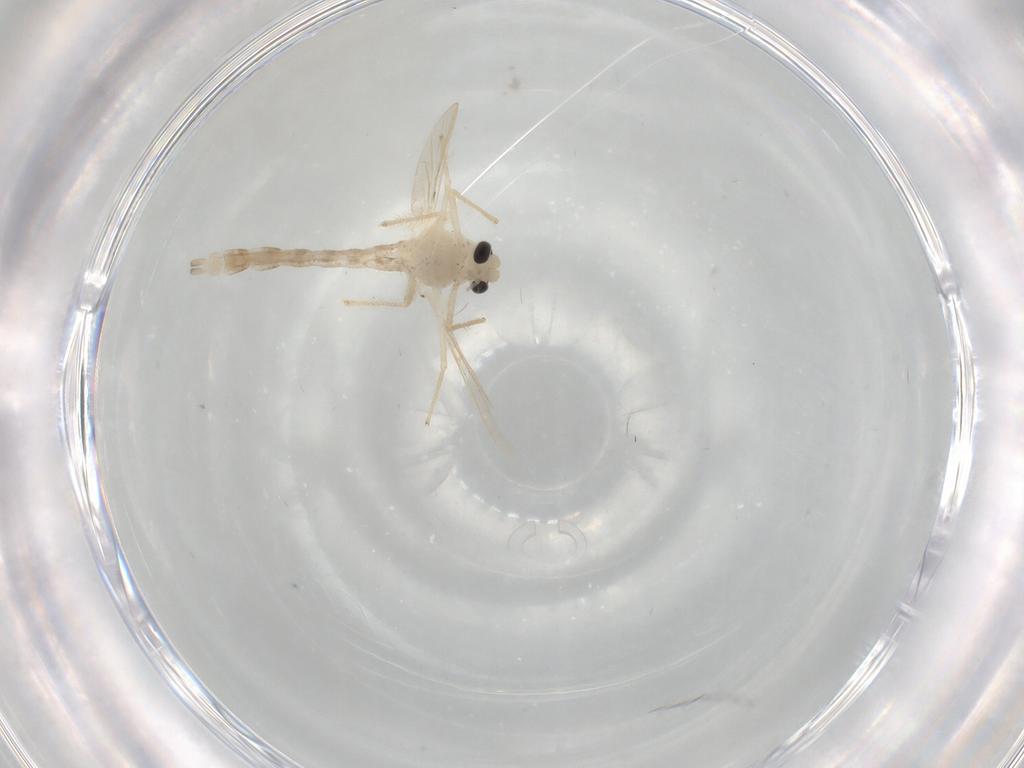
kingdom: Animalia
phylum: Arthropoda
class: Insecta
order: Diptera
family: Chironomidae
